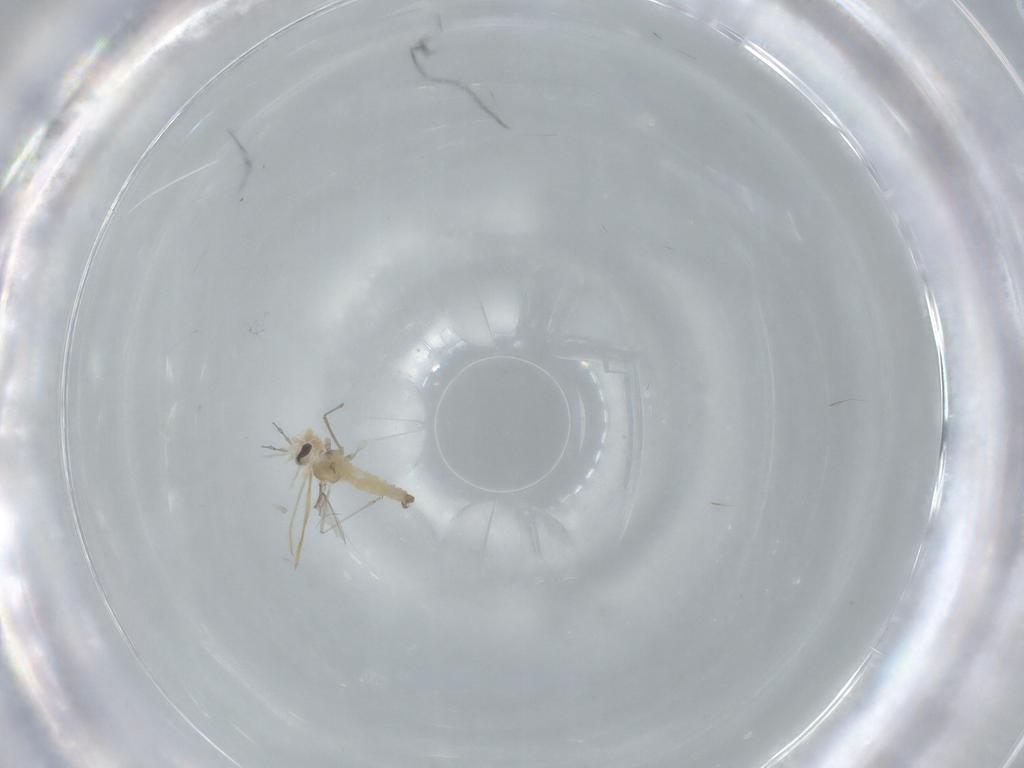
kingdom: Animalia
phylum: Arthropoda
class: Insecta
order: Diptera
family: Cecidomyiidae
